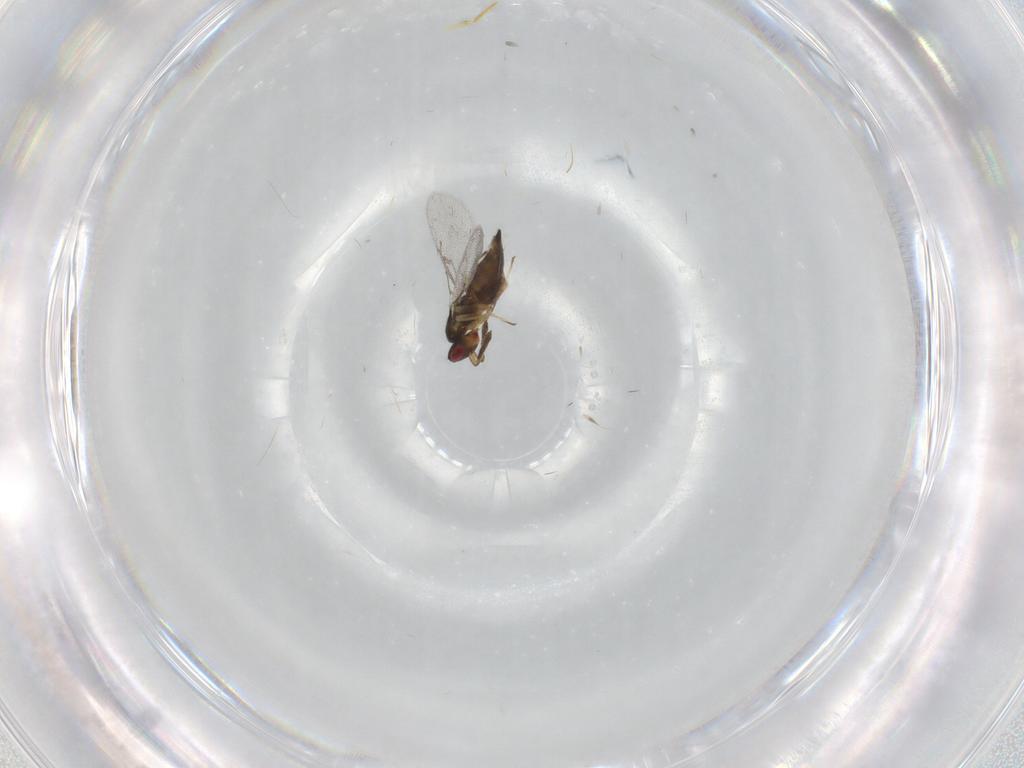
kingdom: Animalia
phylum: Arthropoda
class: Insecta
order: Hymenoptera
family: Eulophidae
